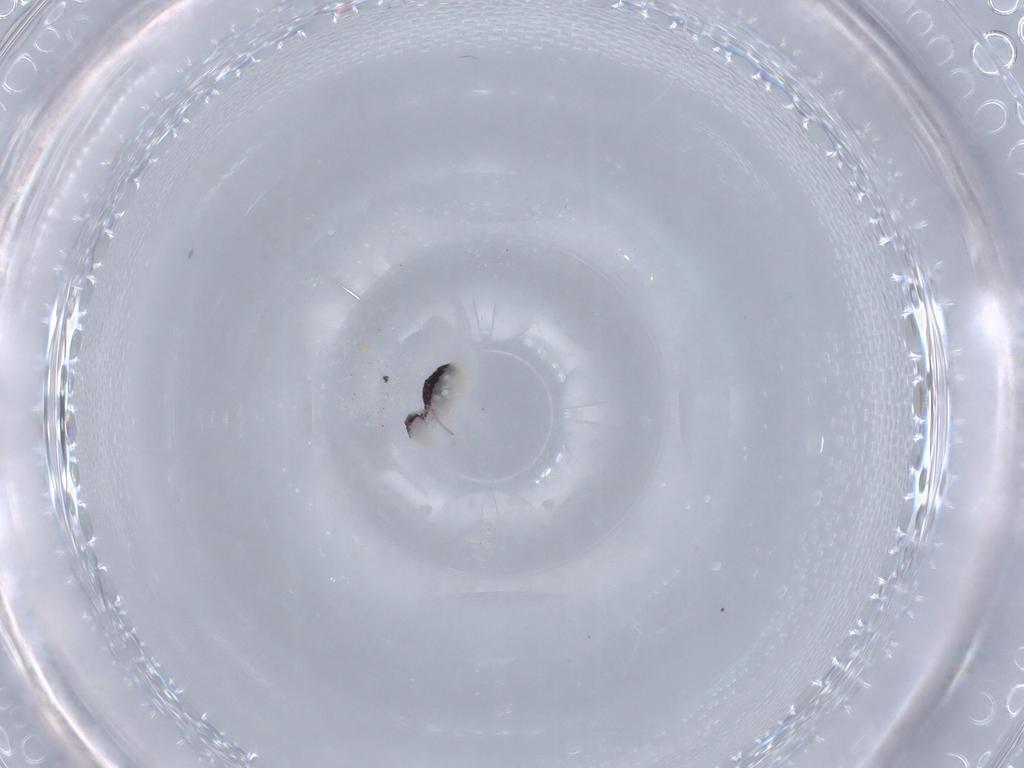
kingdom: Animalia
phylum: Arthropoda
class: Collembola
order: Symphypleona
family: Bourletiellidae
